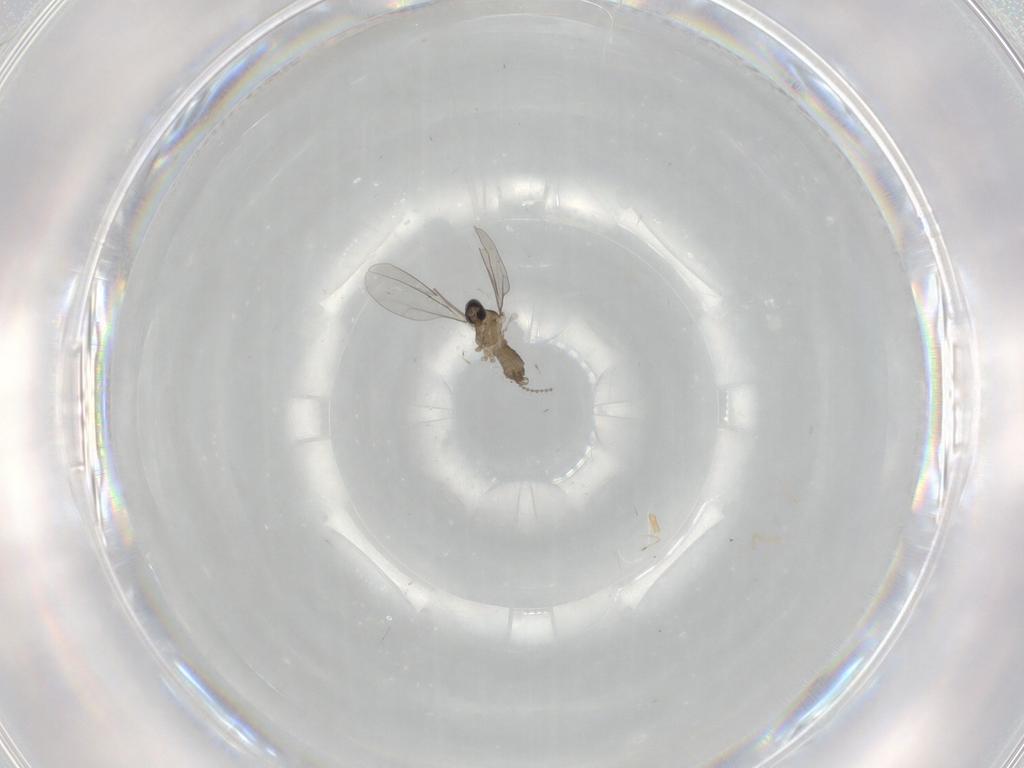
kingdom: Animalia
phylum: Arthropoda
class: Insecta
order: Diptera
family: Cecidomyiidae
